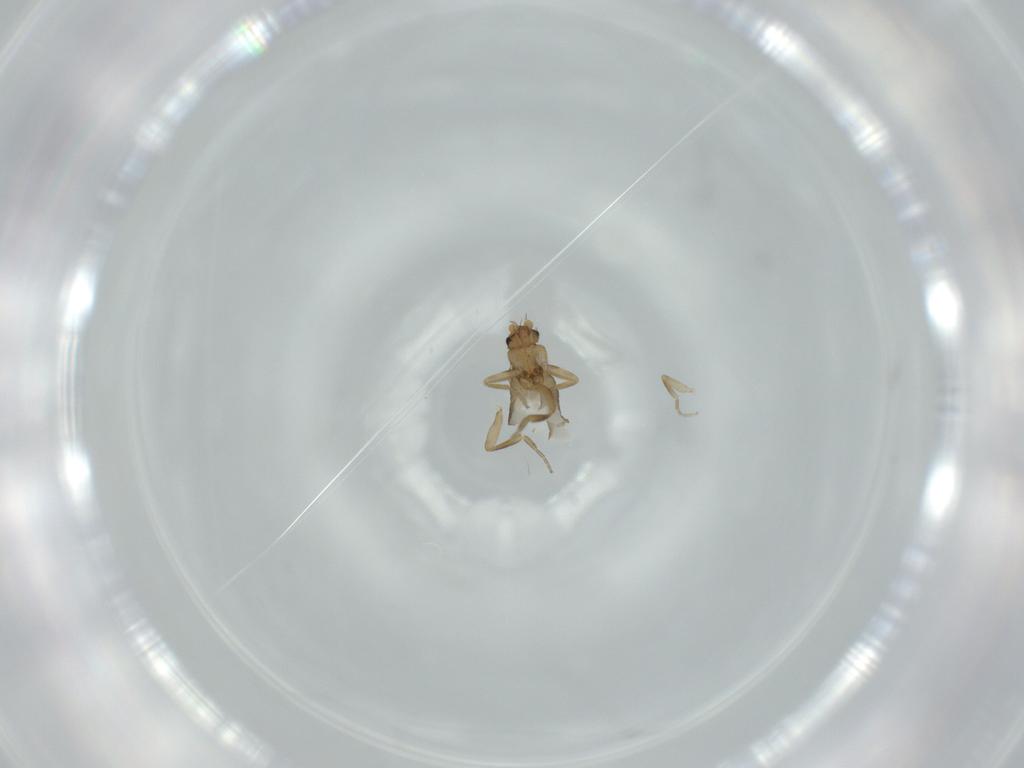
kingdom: Animalia
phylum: Arthropoda
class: Insecta
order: Diptera
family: Phoridae
